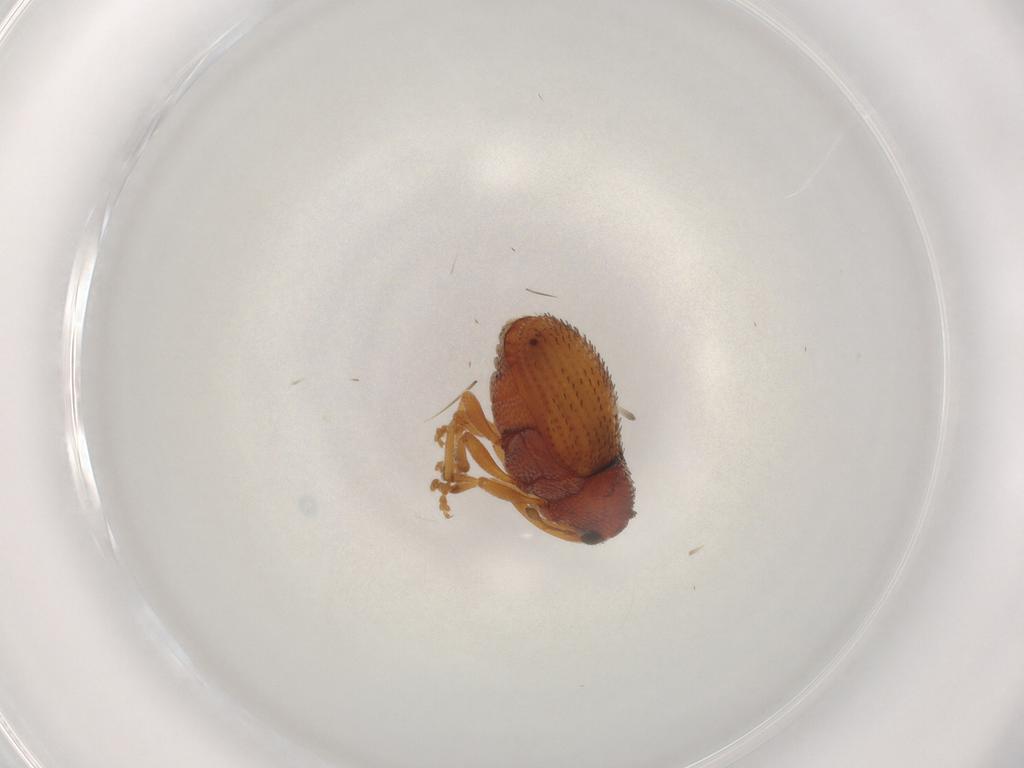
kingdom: Animalia
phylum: Arthropoda
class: Insecta
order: Coleoptera
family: Curculionidae
